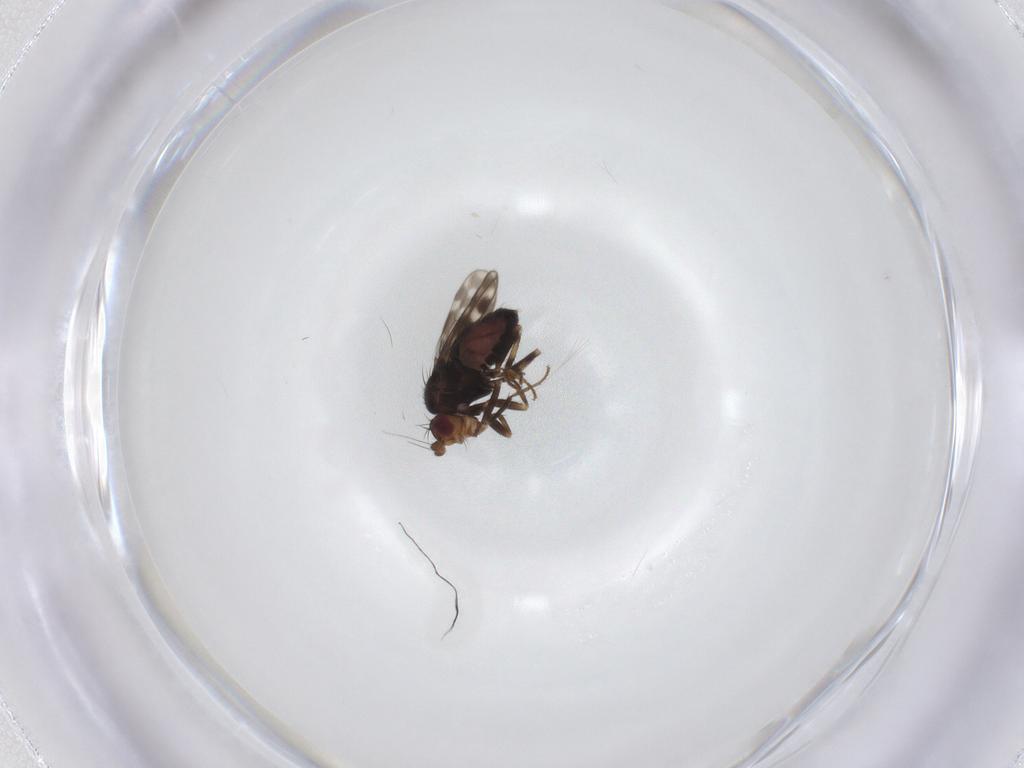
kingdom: Animalia
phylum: Arthropoda
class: Insecta
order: Diptera
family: Sphaeroceridae
